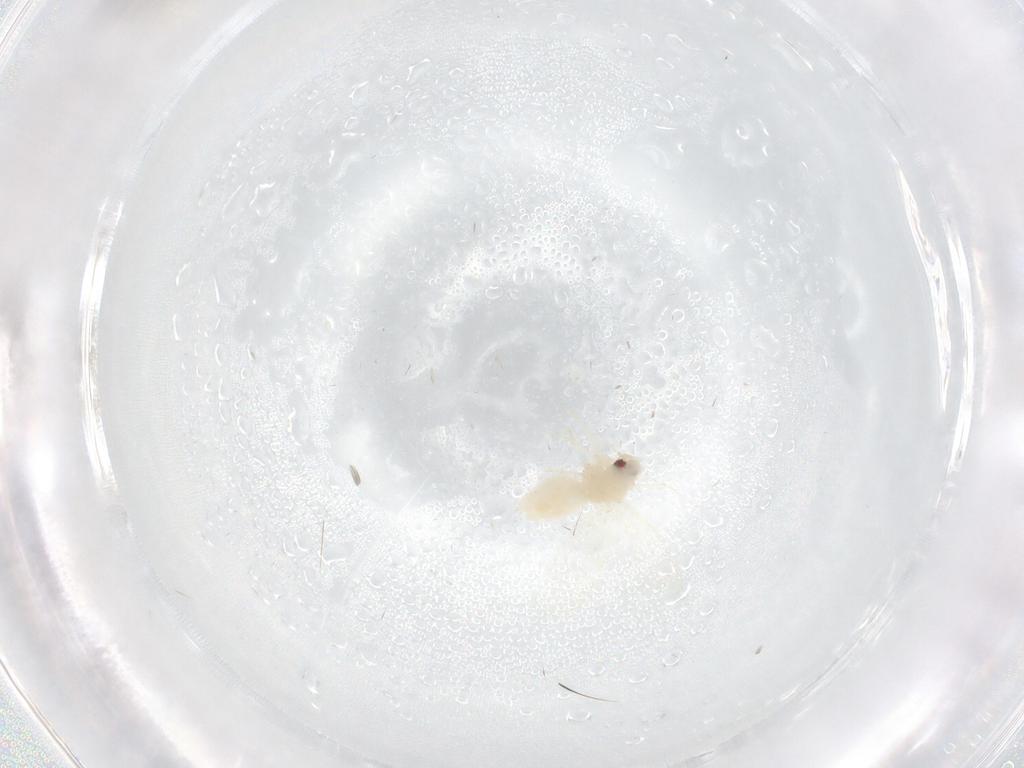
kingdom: Animalia
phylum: Arthropoda
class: Insecta
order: Hemiptera
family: Aleyrodidae
